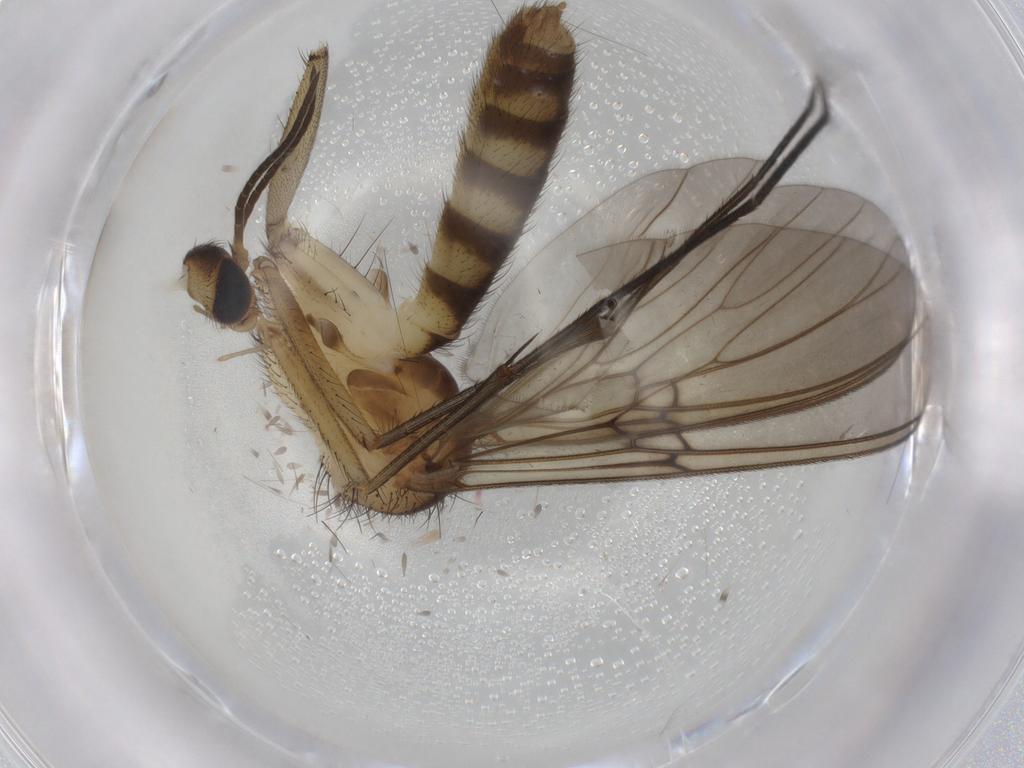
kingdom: Animalia
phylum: Arthropoda
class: Insecta
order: Diptera
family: Mycetophilidae
